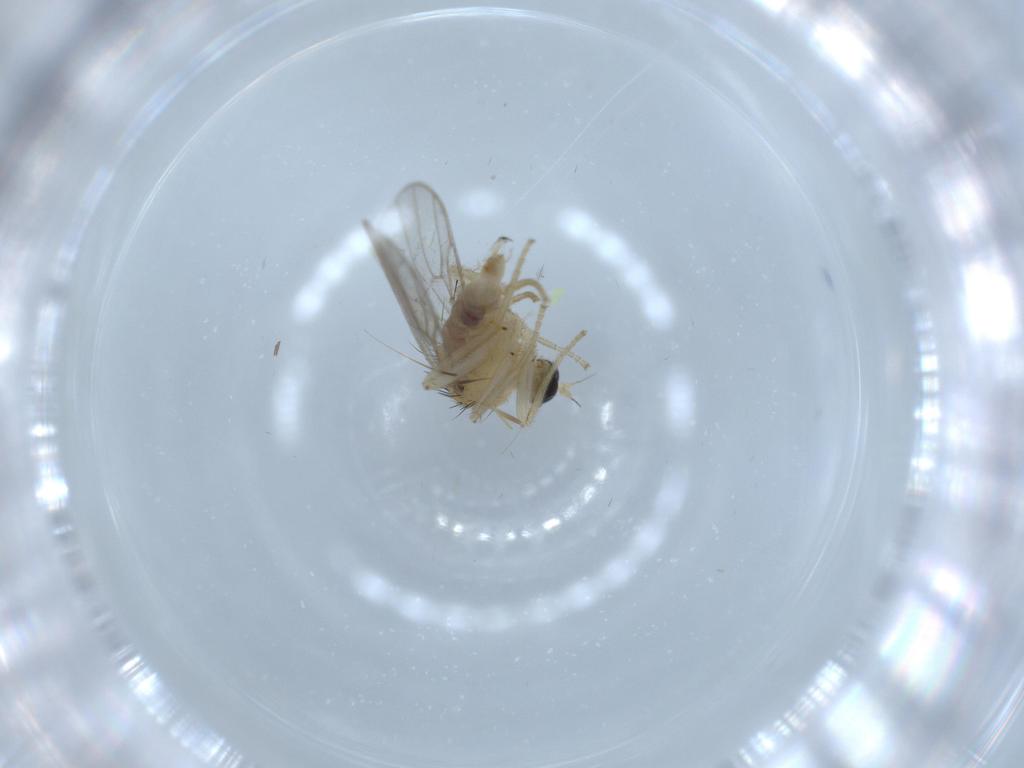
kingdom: Animalia
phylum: Arthropoda
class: Insecta
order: Diptera
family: Hybotidae
